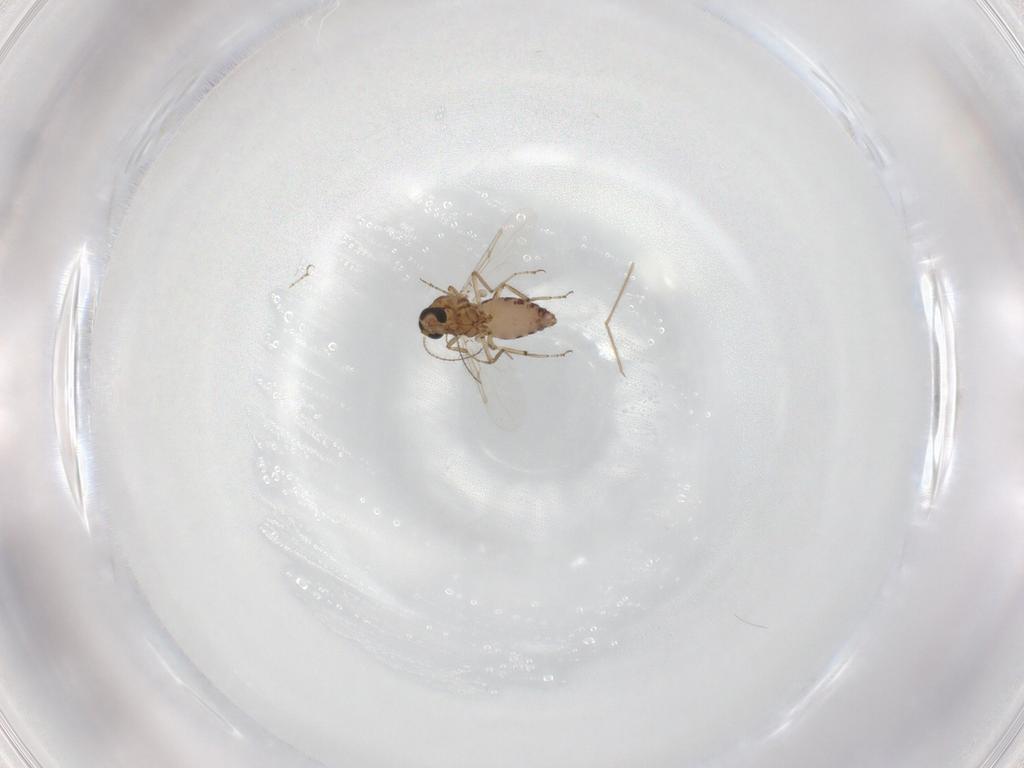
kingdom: Animalia
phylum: Arthropoda
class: Insecta
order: Diptera
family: Ceratopogonidae
